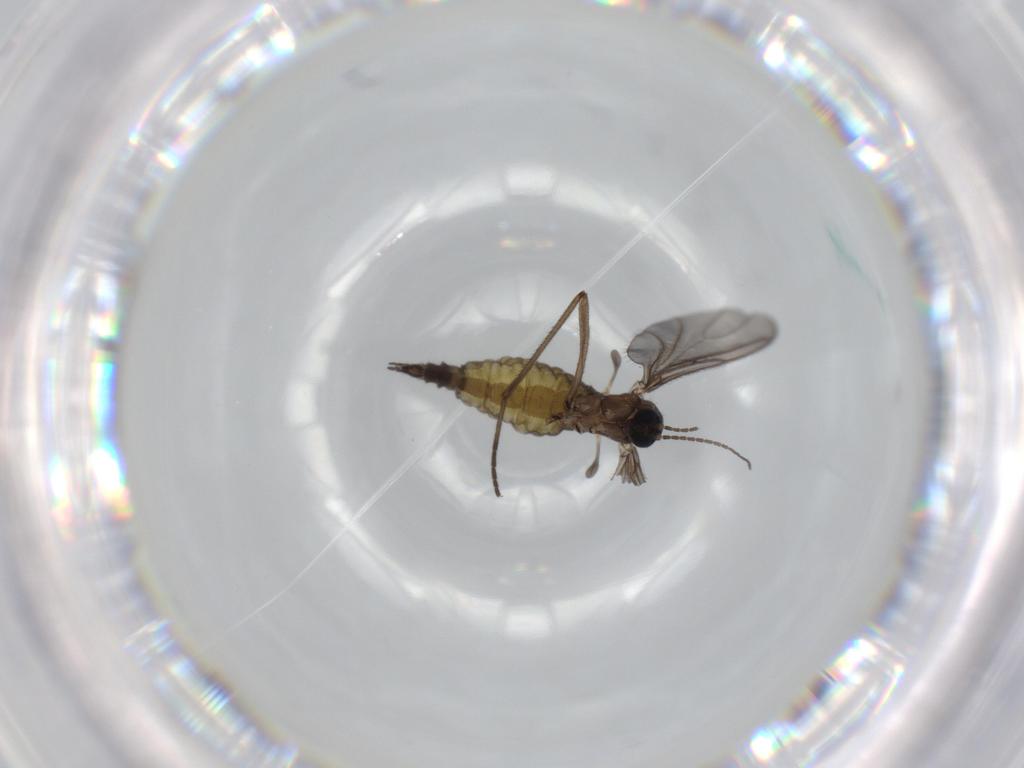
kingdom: Animalia
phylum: Arthropoda
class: Insecta
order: Diptera
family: Sciaridae
